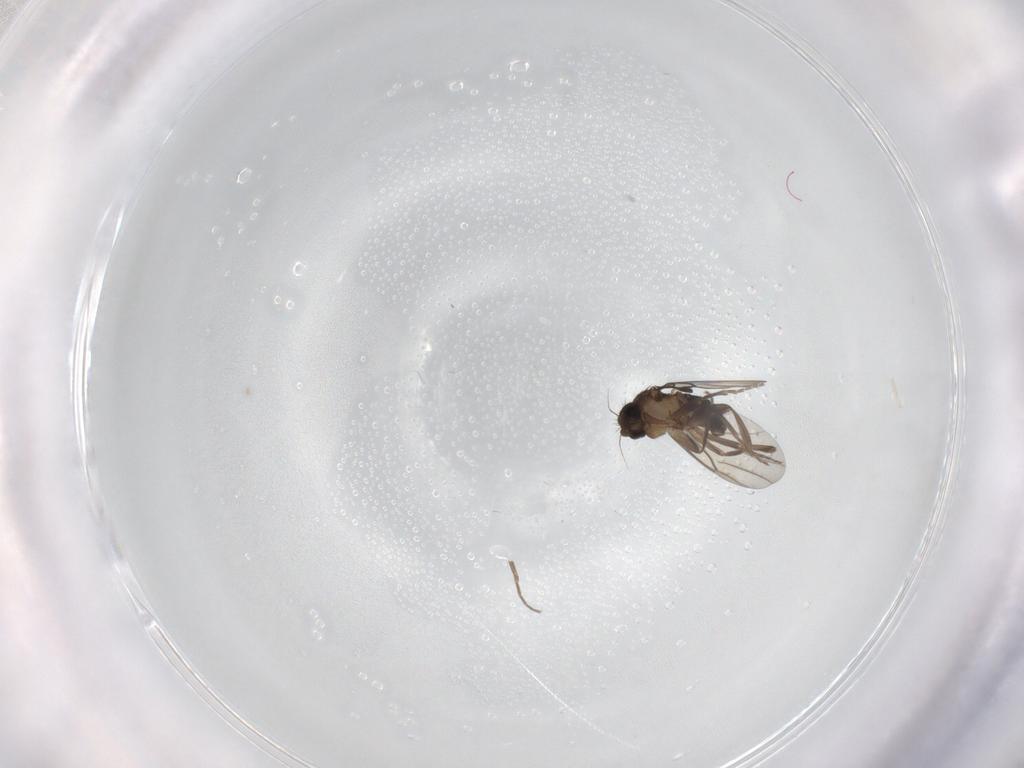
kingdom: Animalia
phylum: Arthropoda
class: Insecta
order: Diptera
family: Phoridae
